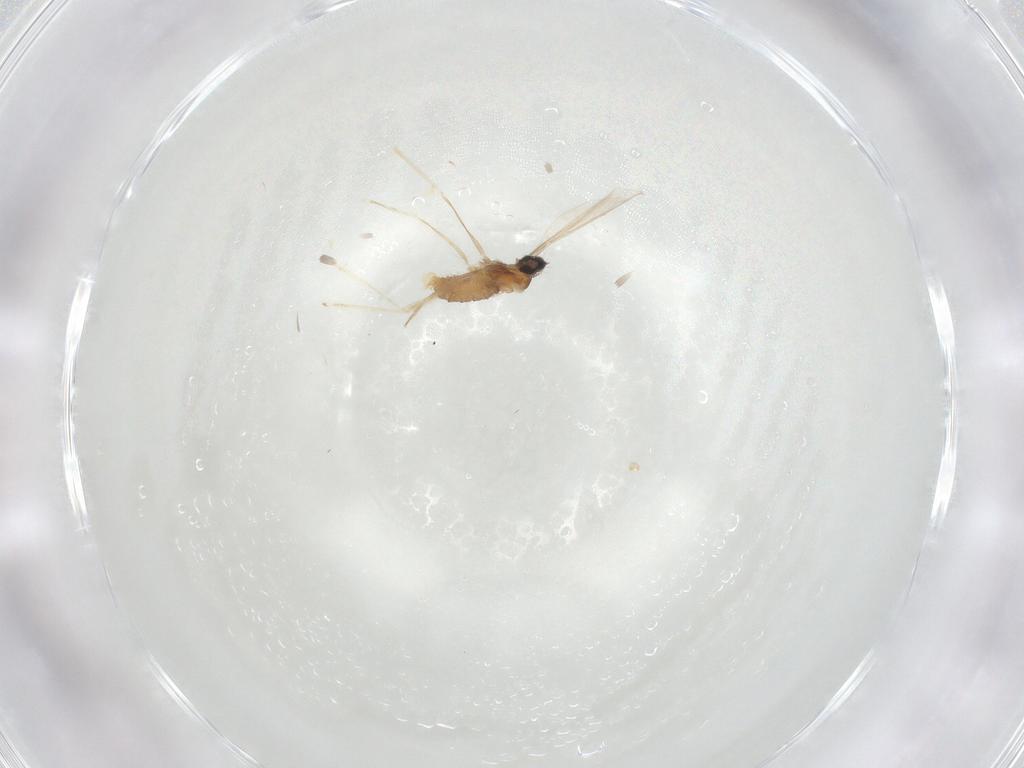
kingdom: Animalia
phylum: Arthropoda
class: Insecta
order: Diptera
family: Cecidomyiidae
